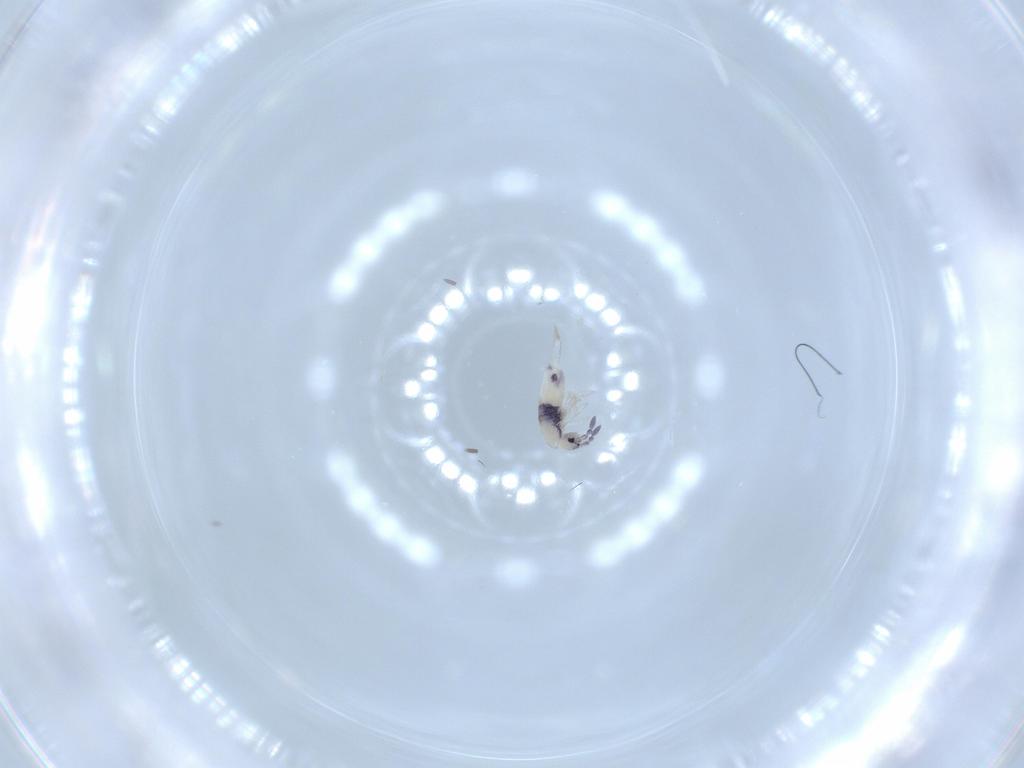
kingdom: Animalia
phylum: Arthropoda
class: Collembola
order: Entomobryomorpha
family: Entomobryidae
